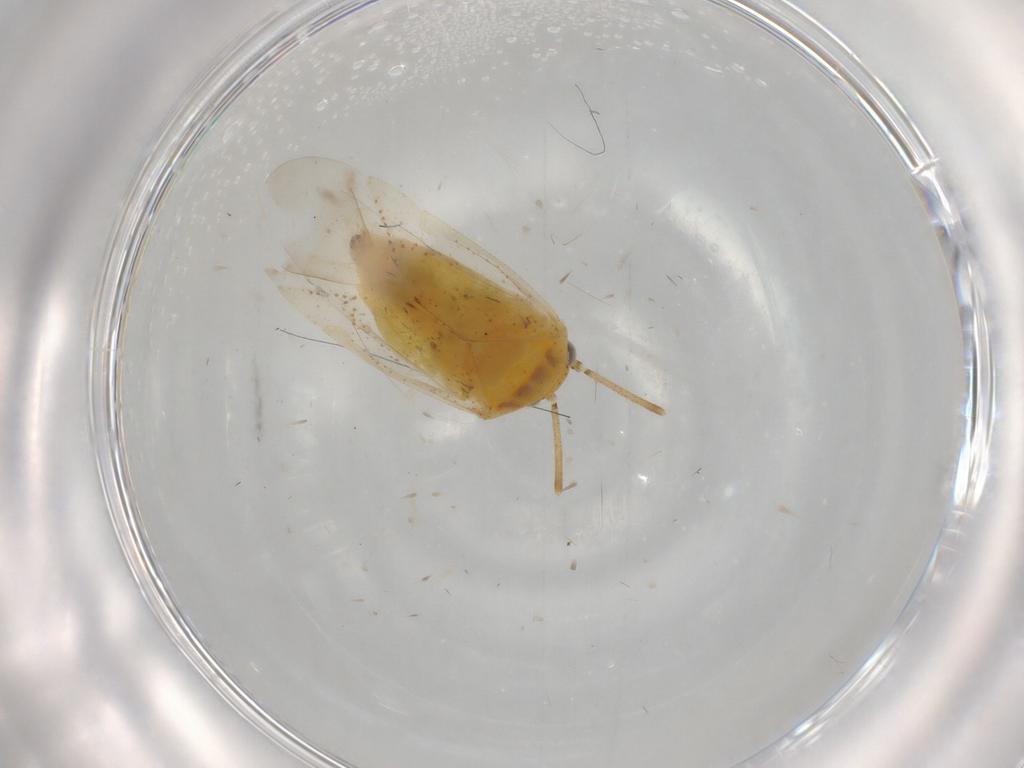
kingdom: Animalia
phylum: Arthropoda
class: Insecta
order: Hemiptera
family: Miridae
